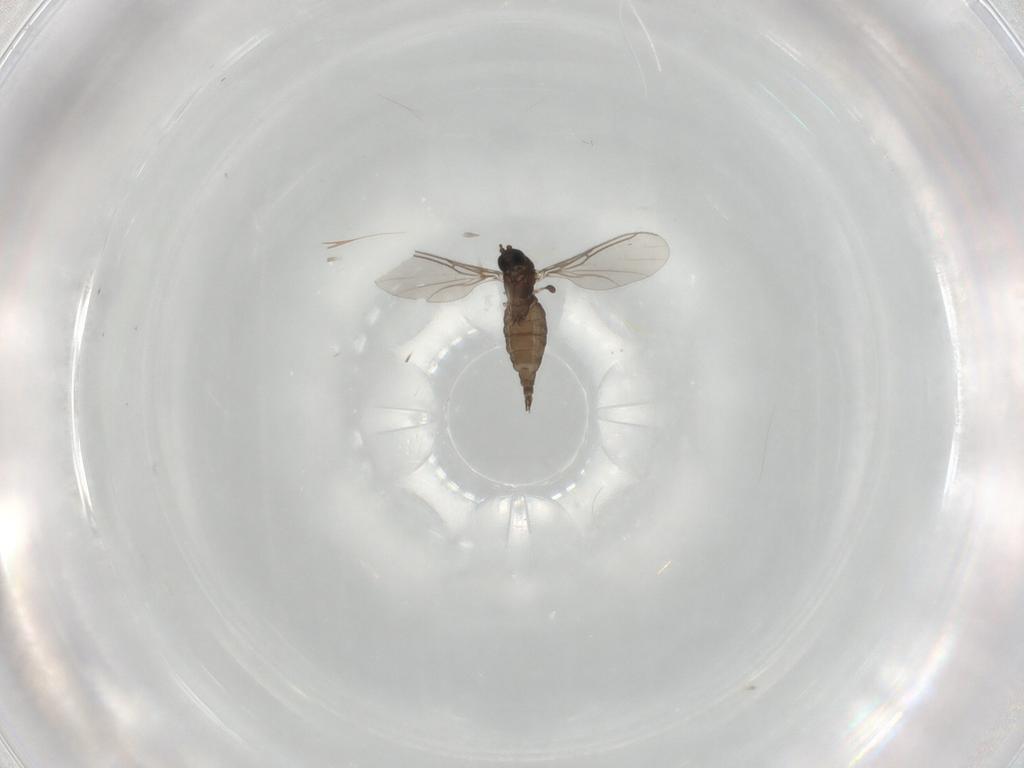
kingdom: Animalia
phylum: Arthropoda
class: Insecta
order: Diptera
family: Sciaridae
